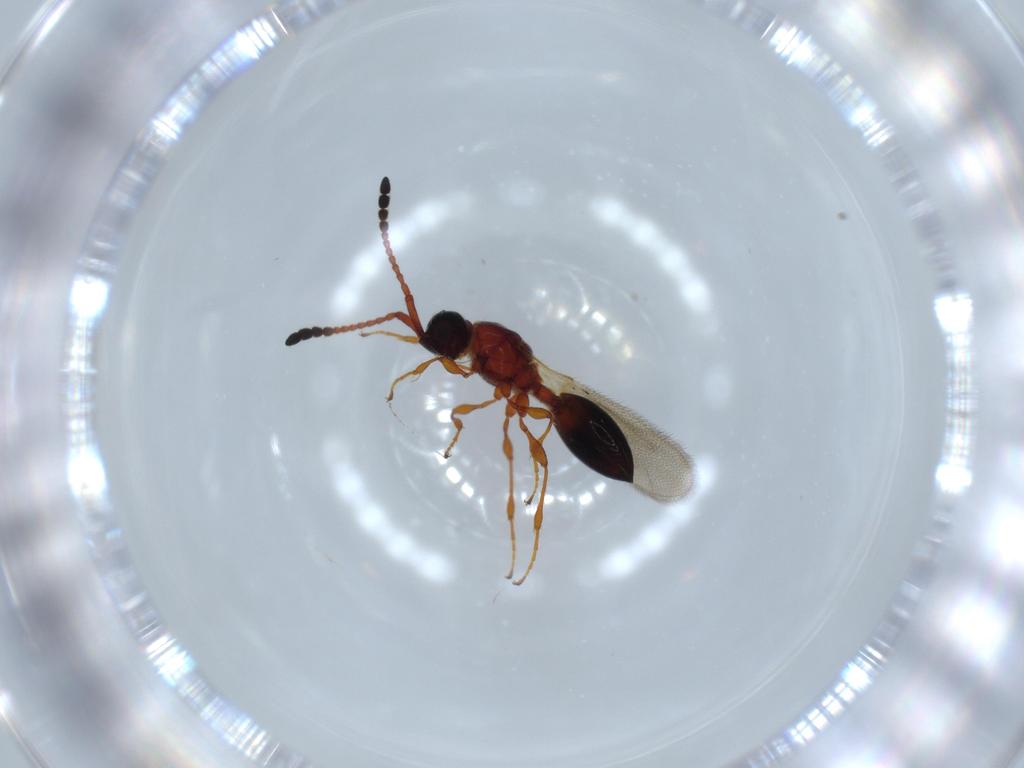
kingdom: Animalia
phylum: Arthropoda
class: Insecta
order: Hymenoptera
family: Diapriidae
